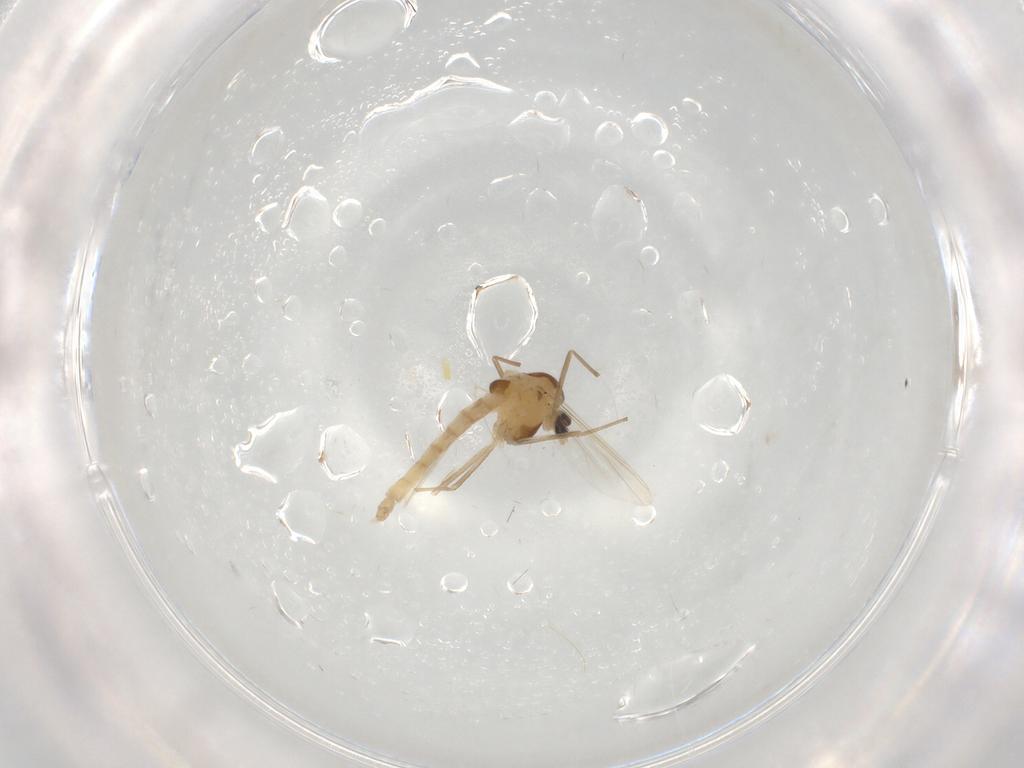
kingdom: Animalia
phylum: Arthropoda
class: Insecta
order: Diptera
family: Chironomidae
